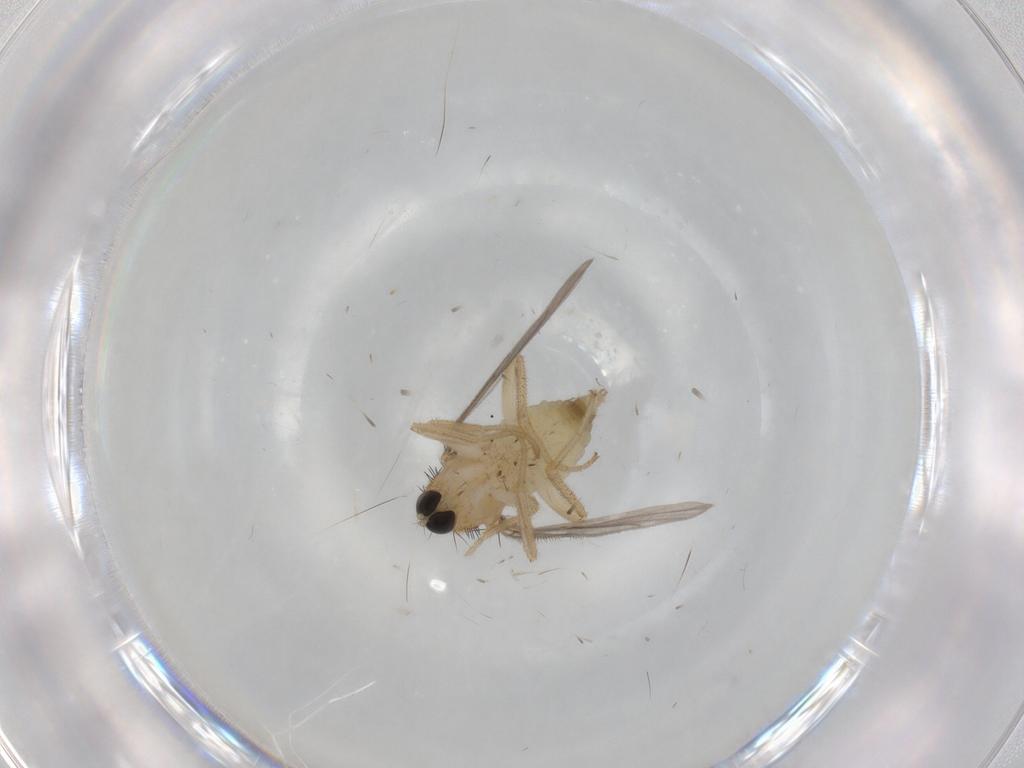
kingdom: Animalia
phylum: Arthropoda
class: Insecta
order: Diptera
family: Hybotidae
